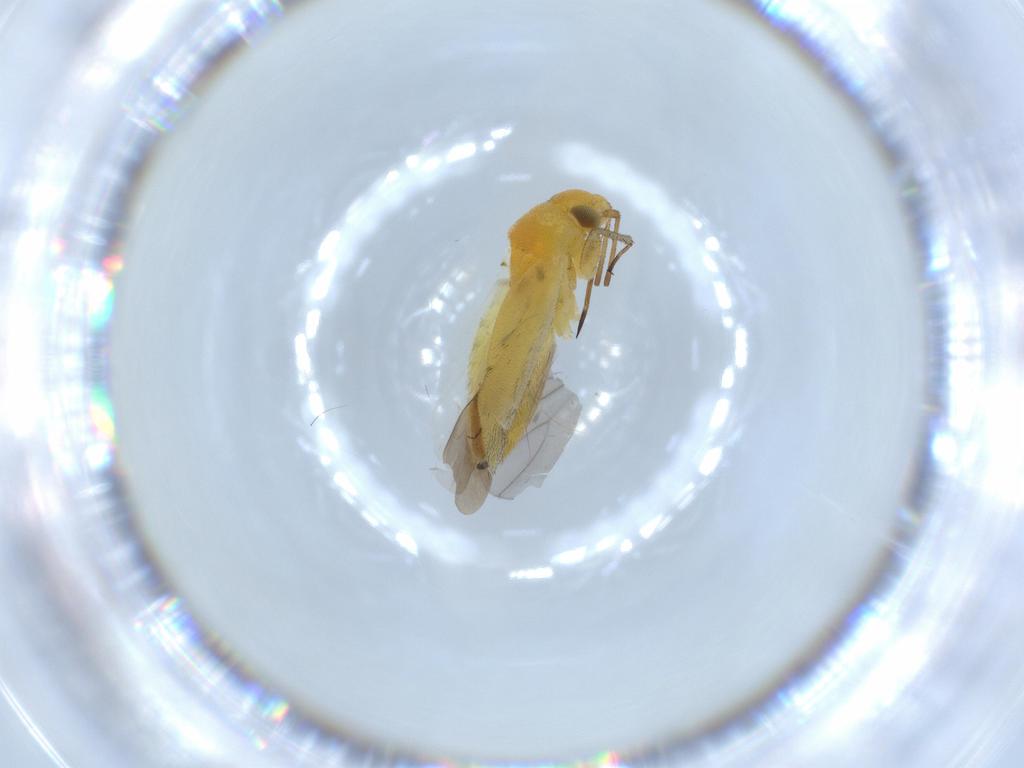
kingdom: Animalia
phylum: Arthropoda
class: Insecta
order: Hemiptera
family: Miridae
